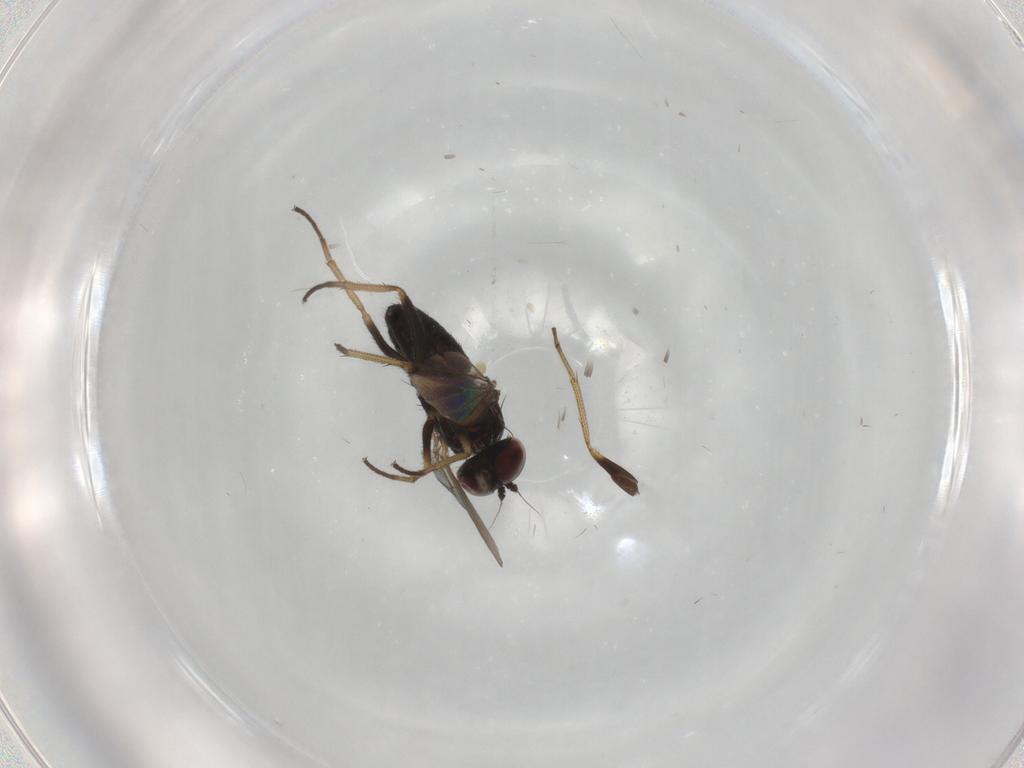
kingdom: Animalia
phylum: Arthropoda
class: Insecta
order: Diptera
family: Dolichopodidae
